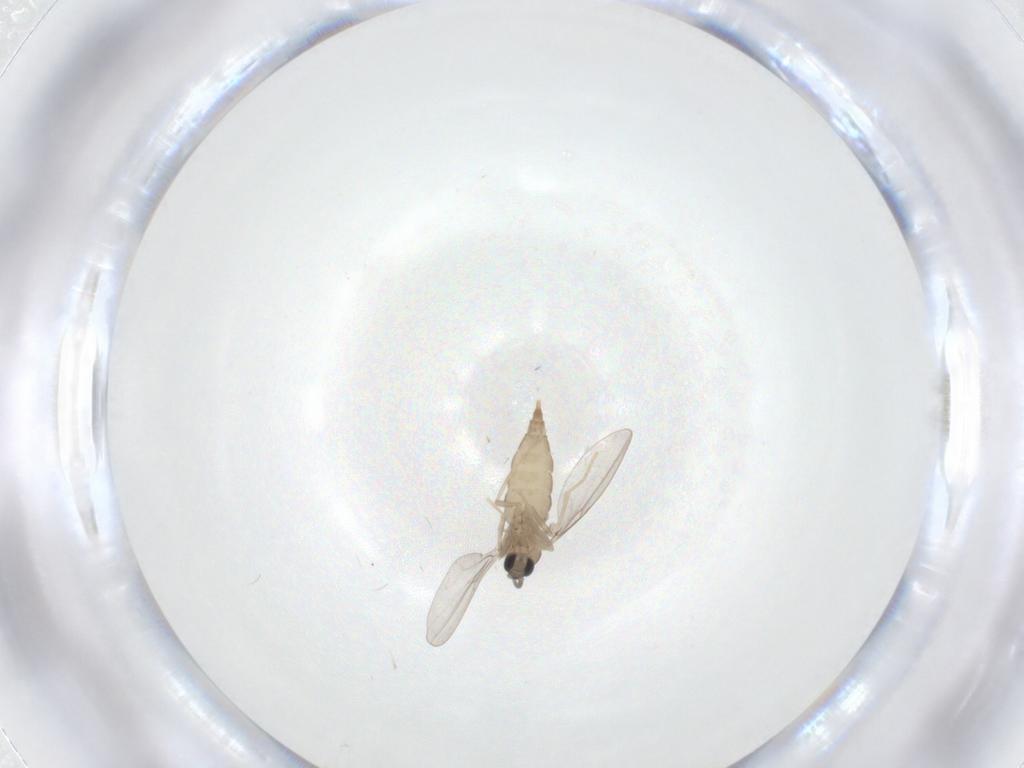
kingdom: Animalia
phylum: Arthropoda
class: Insecta
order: Diptera
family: Cecidomyiidae
